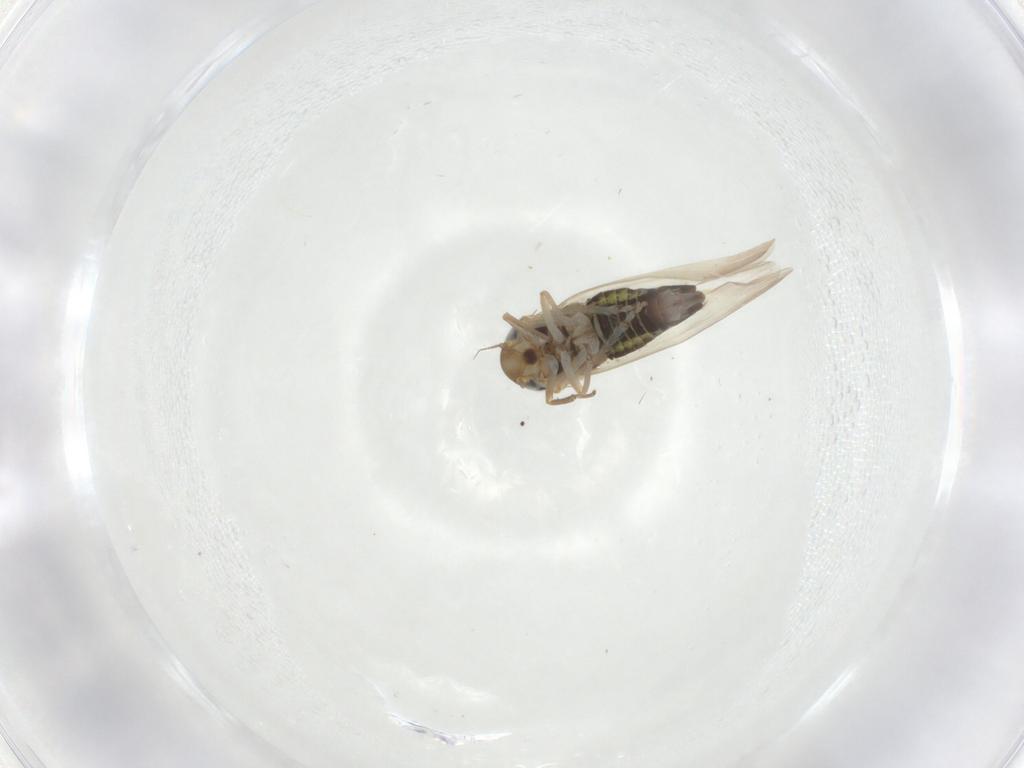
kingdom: Animalia
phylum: Arthropoda
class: Insecta
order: Hemiptera
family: Cicadellidae
